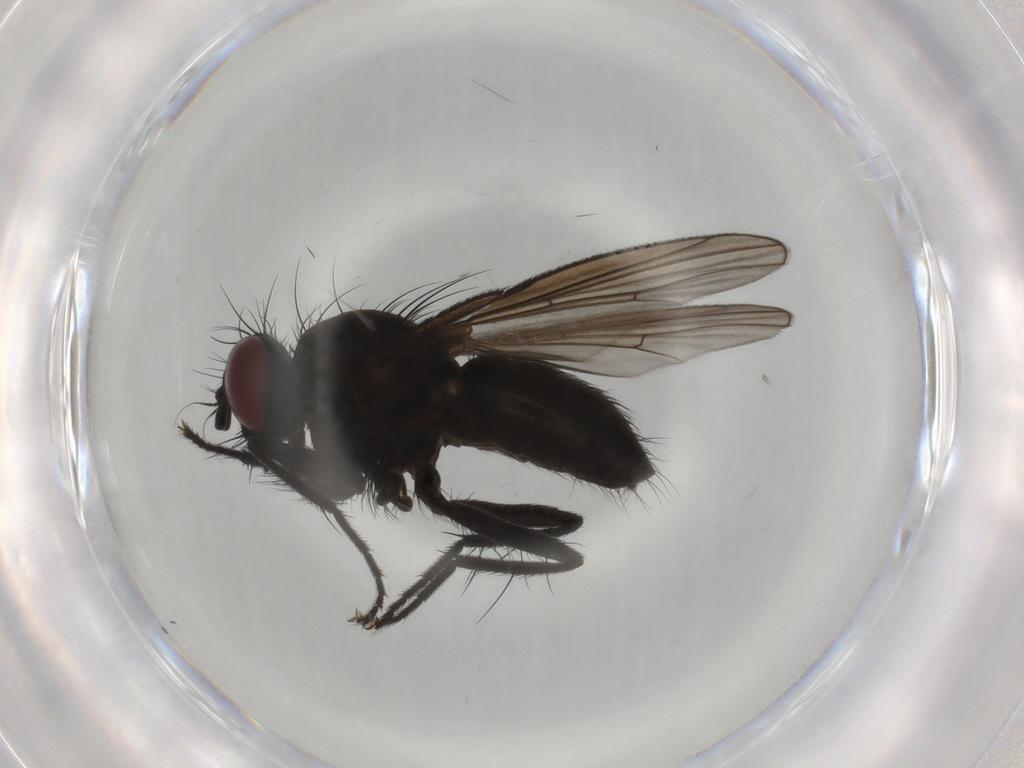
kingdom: Animalia
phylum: Arthropoda
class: Insecta
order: Diptera
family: Muscidae
